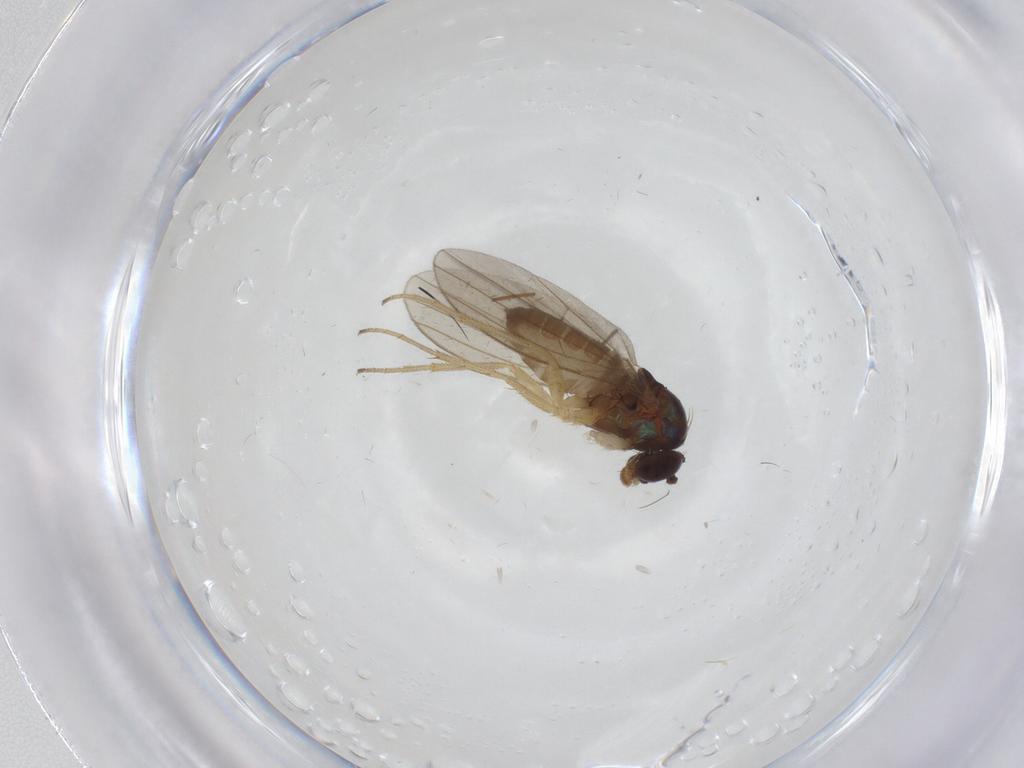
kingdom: Animalia
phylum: Arthropoda
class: Insecta
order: Diptera
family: Dolichopodidae
